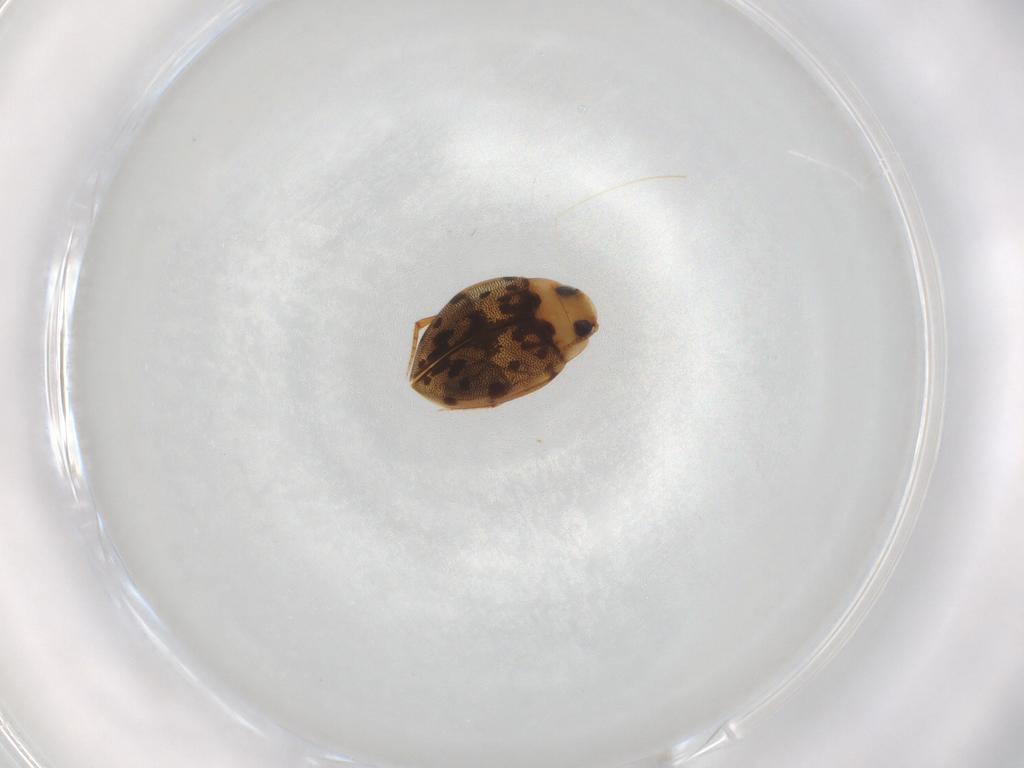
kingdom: Animalia
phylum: Arthropoda
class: Insecta
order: Coleoptera
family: Dytiscidae
